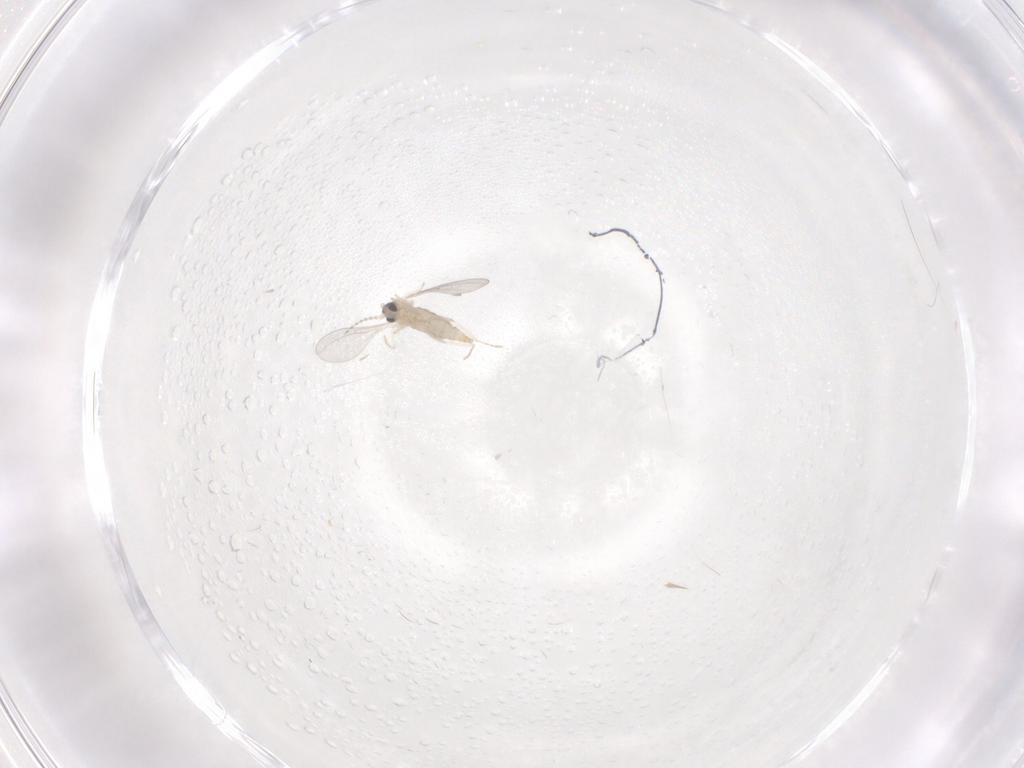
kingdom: Animalia
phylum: Arthropoda
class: Insecta
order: Diptera
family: Cecidomyiidae
